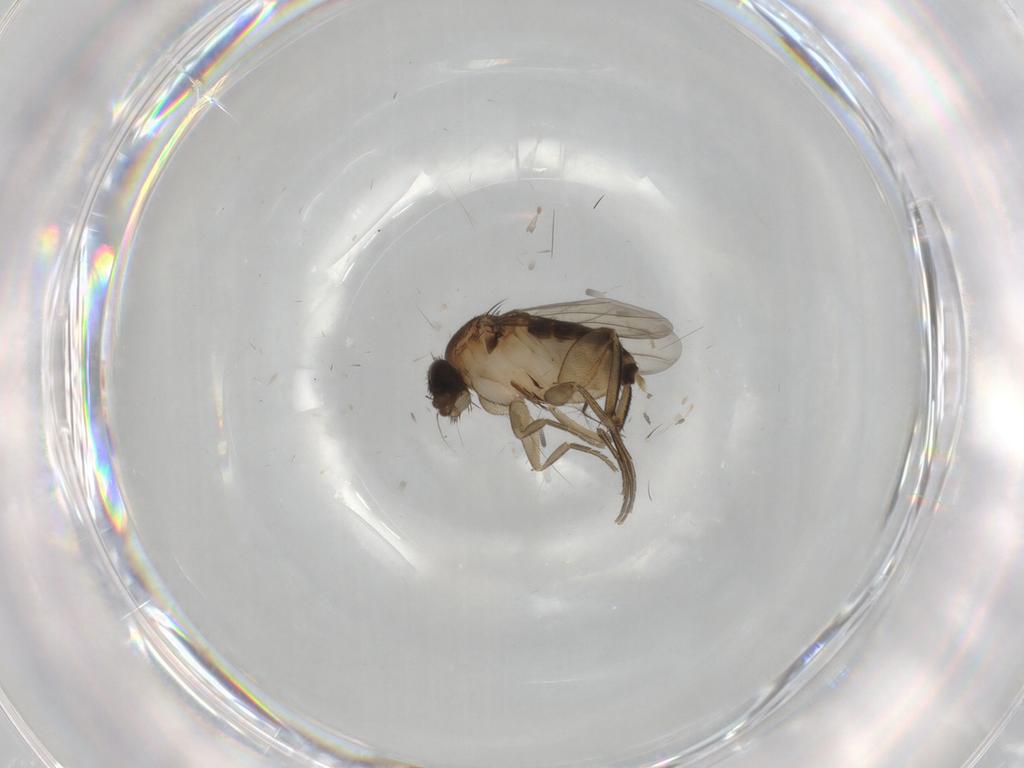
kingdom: Animalia
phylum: Arthropoda
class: Insecta
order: Diptera
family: Phoridae
